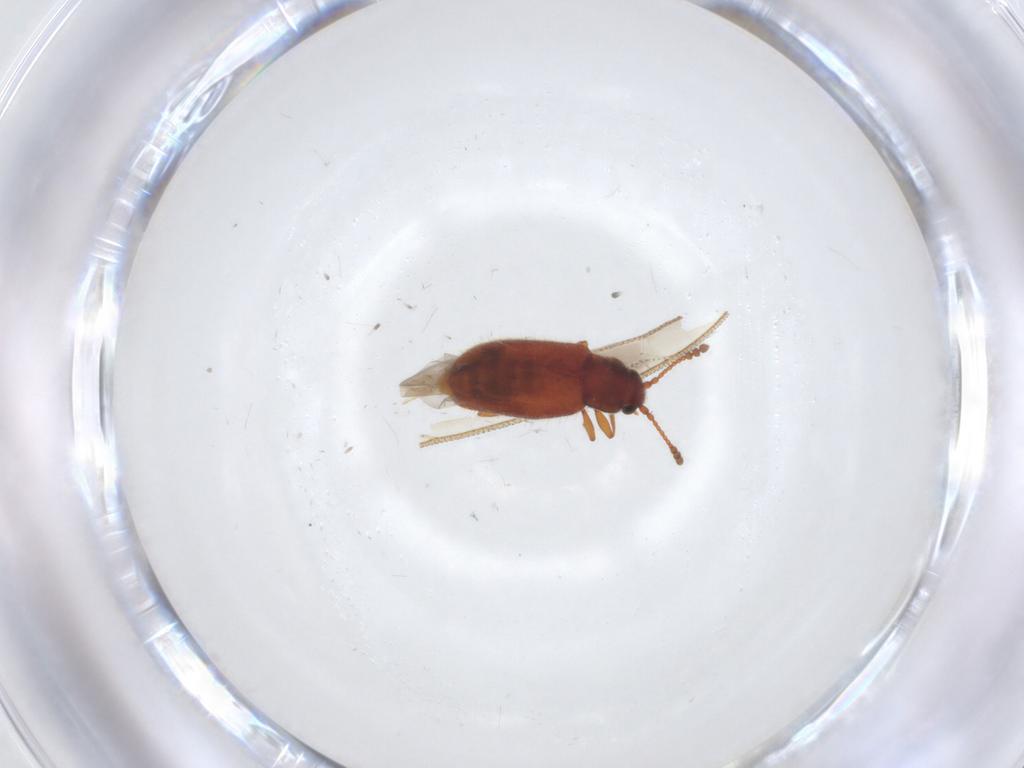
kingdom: Animalia
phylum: Arthropoda
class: Insecta
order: Coleoptera
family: Cryptophagidae
